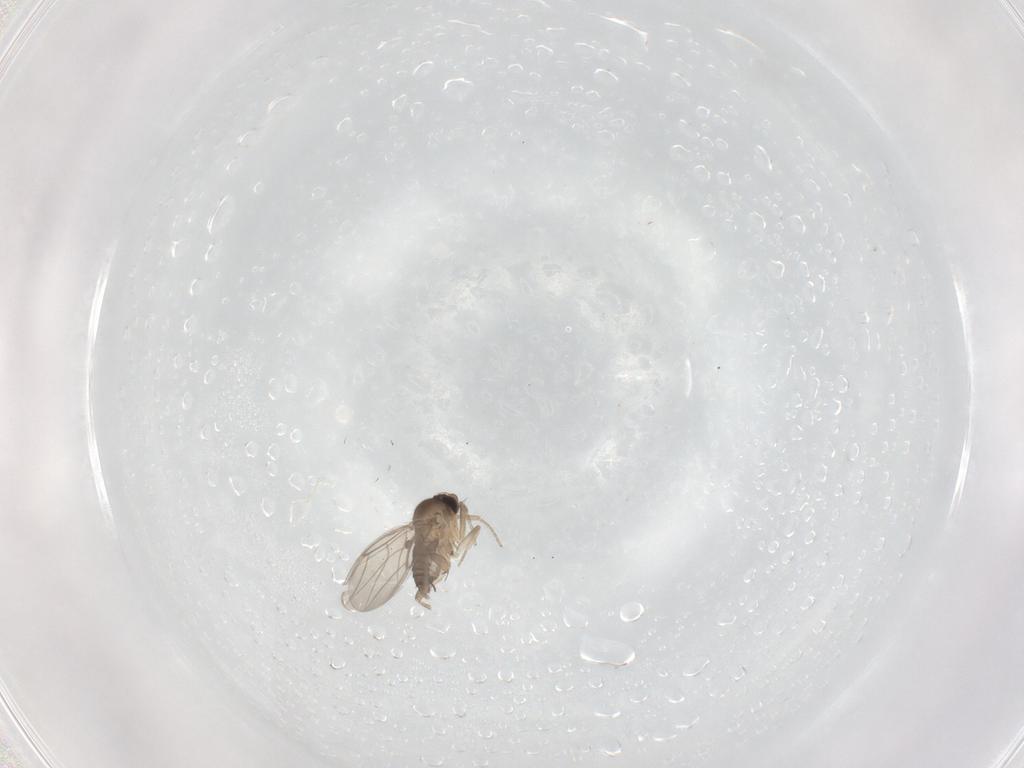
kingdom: Animalia
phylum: Arthropoda
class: Insecta
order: Diptera
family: Phoridae
